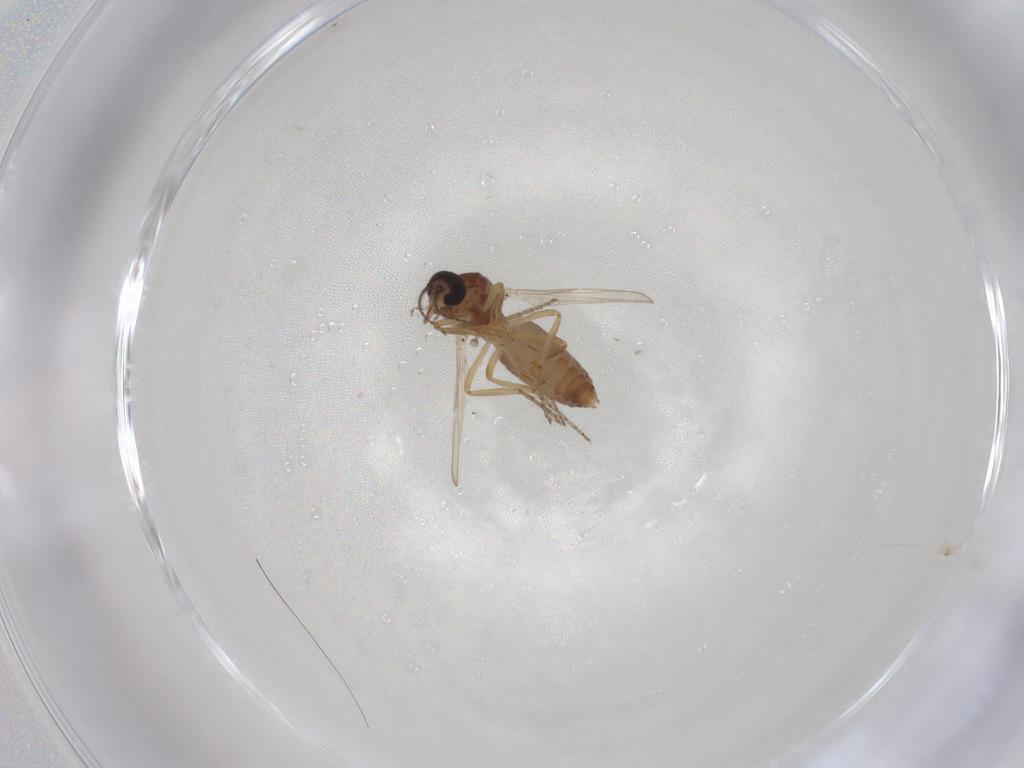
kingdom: Animalia
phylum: Arthropoda
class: Insecta
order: Diptera
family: Ceratopogonidae
